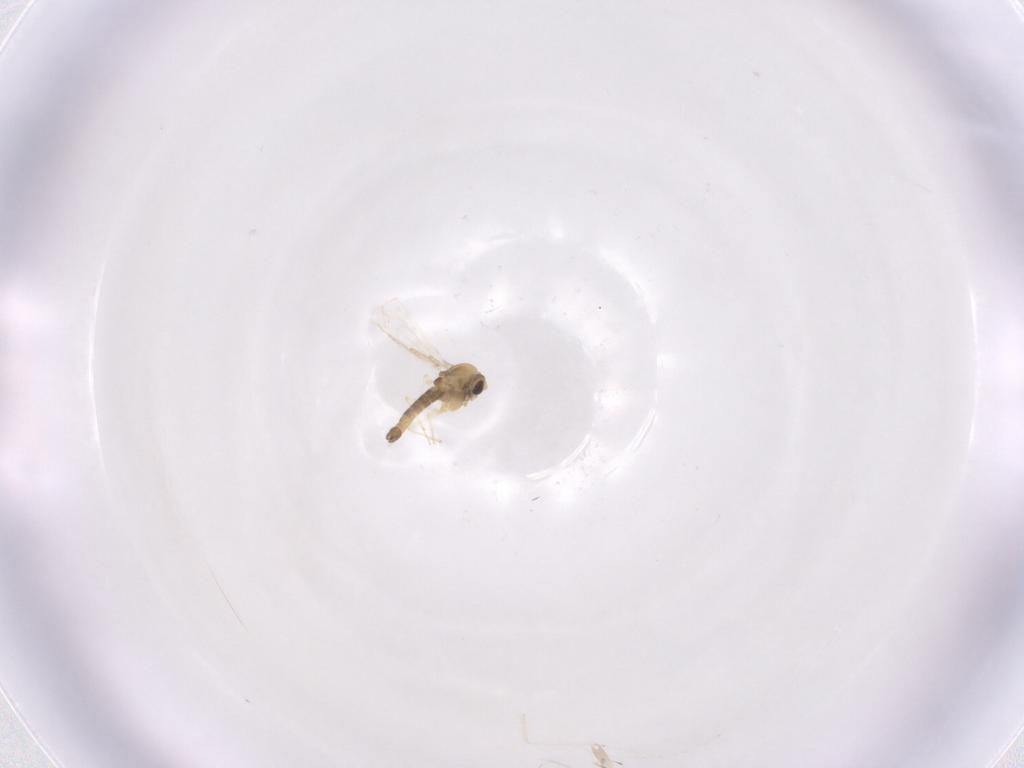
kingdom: Animalia
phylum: Arthropoda
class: Insecta
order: Diptera
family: Chironomidae
